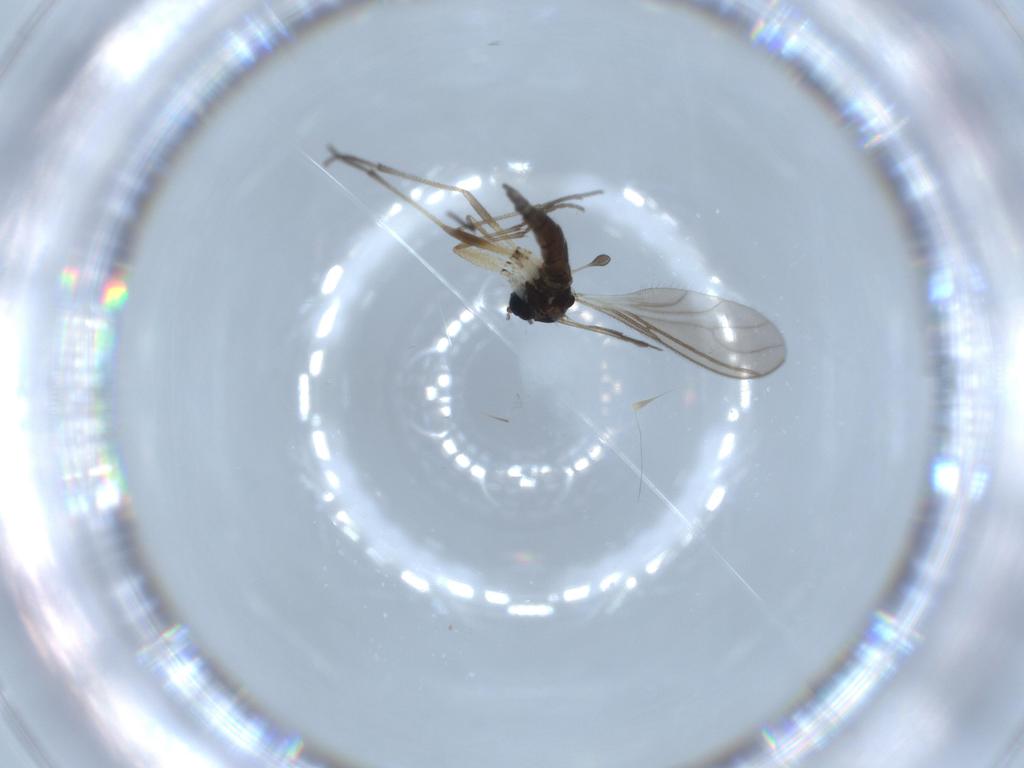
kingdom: Animalia
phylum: Arthropoda
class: Insecta
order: Diptera
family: Sciaridae
